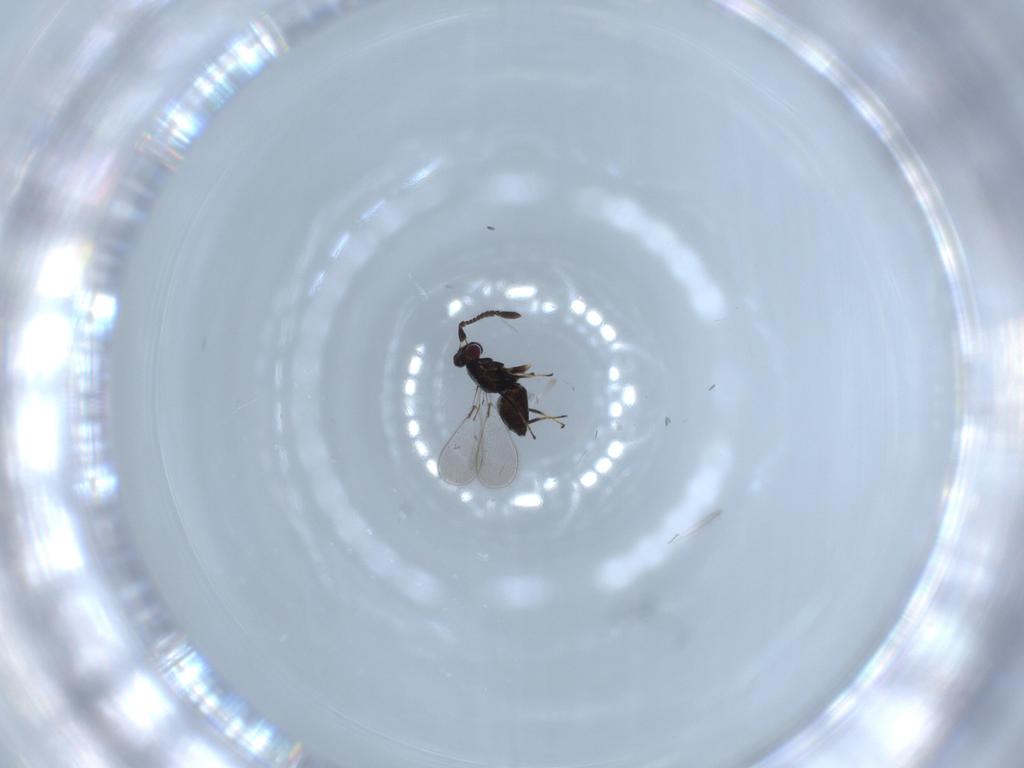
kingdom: Animalia
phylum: Arthropoda
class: Insecta
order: Hymenoptera
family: Mymaridae
